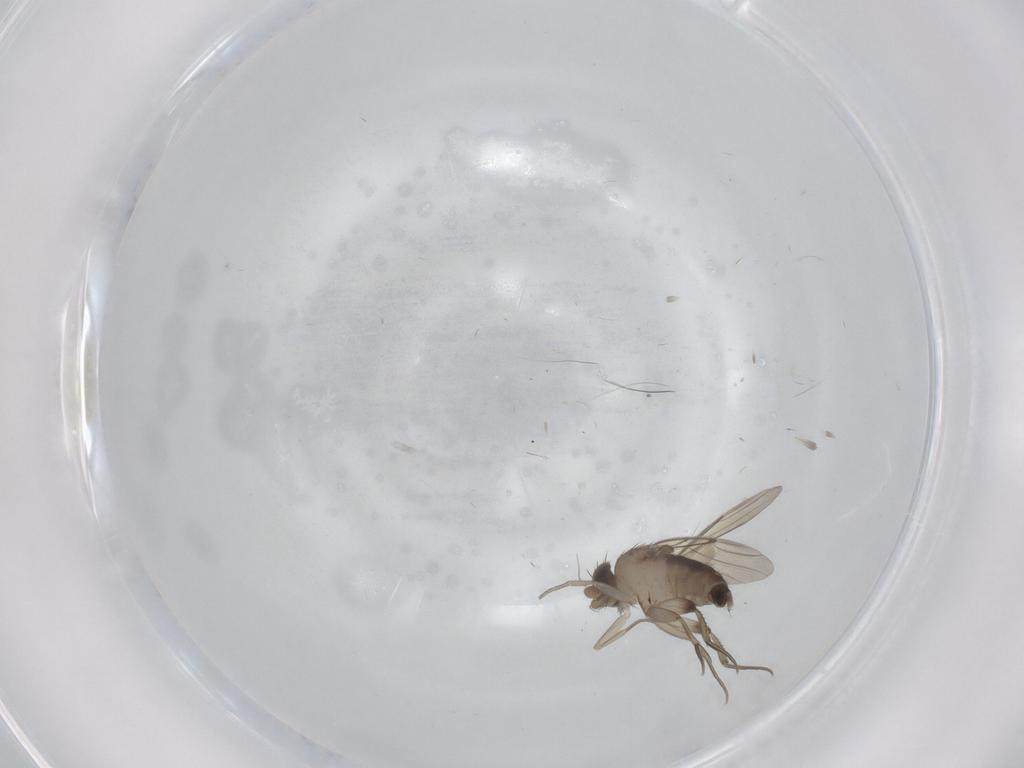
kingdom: Animalia
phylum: Arthropoda
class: Insecta
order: Diptera
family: Phoridae
